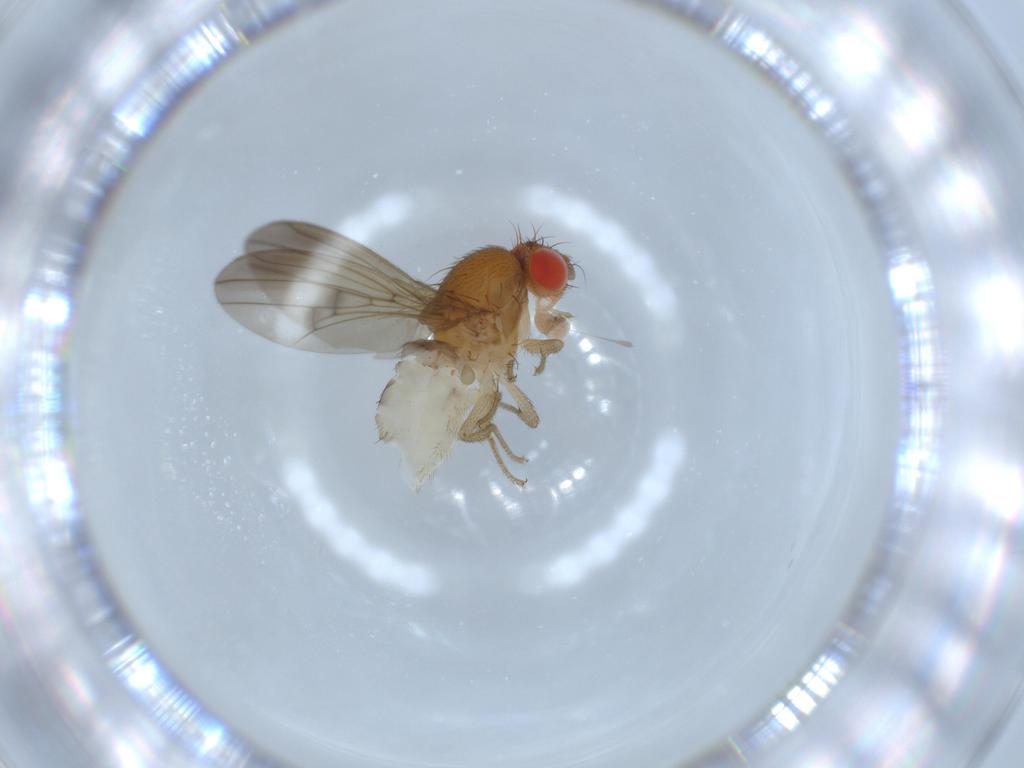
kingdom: Animalia
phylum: Arthropoda
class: Insecta
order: Diptera
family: Drosophilidae
